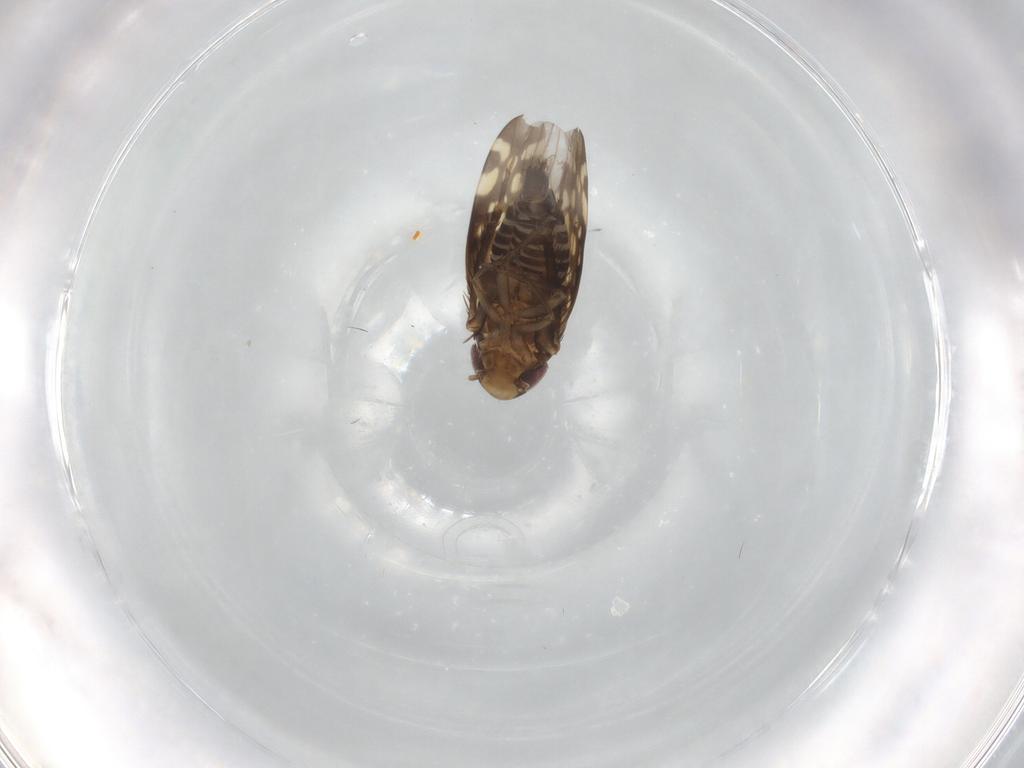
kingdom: Animalia
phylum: Arthropoda
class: Insecta
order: Hemiptera
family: Cicadellidae
